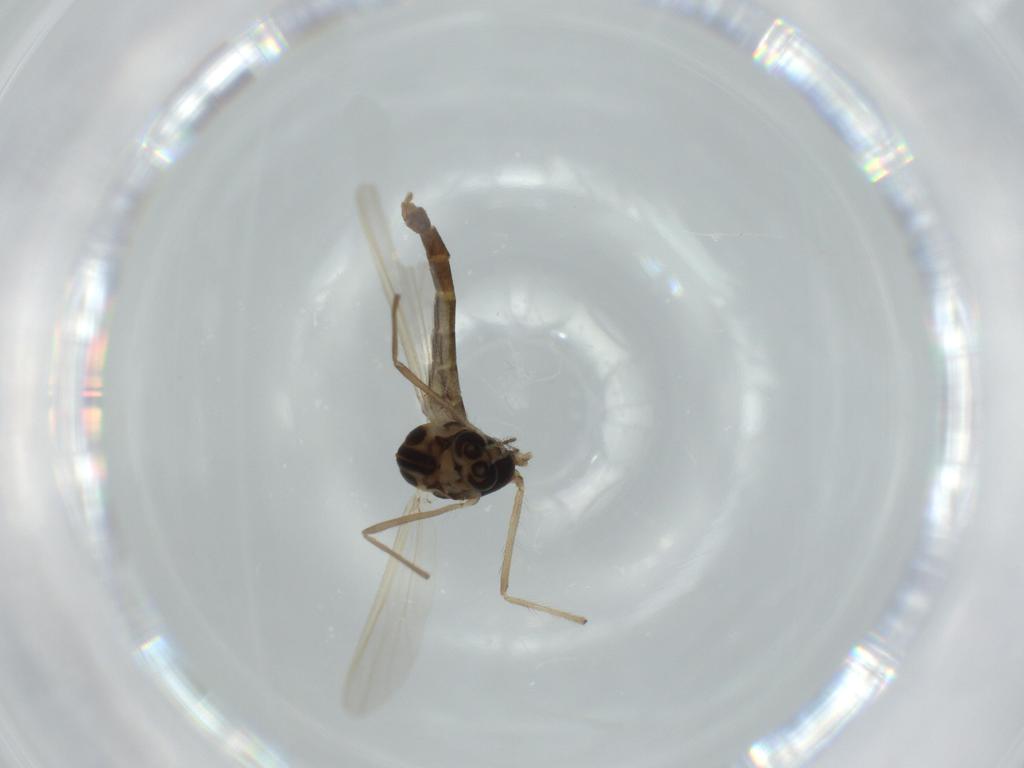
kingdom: Animalia
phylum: Arthropoda
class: Insecta
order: Diptera
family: Chironomidae
